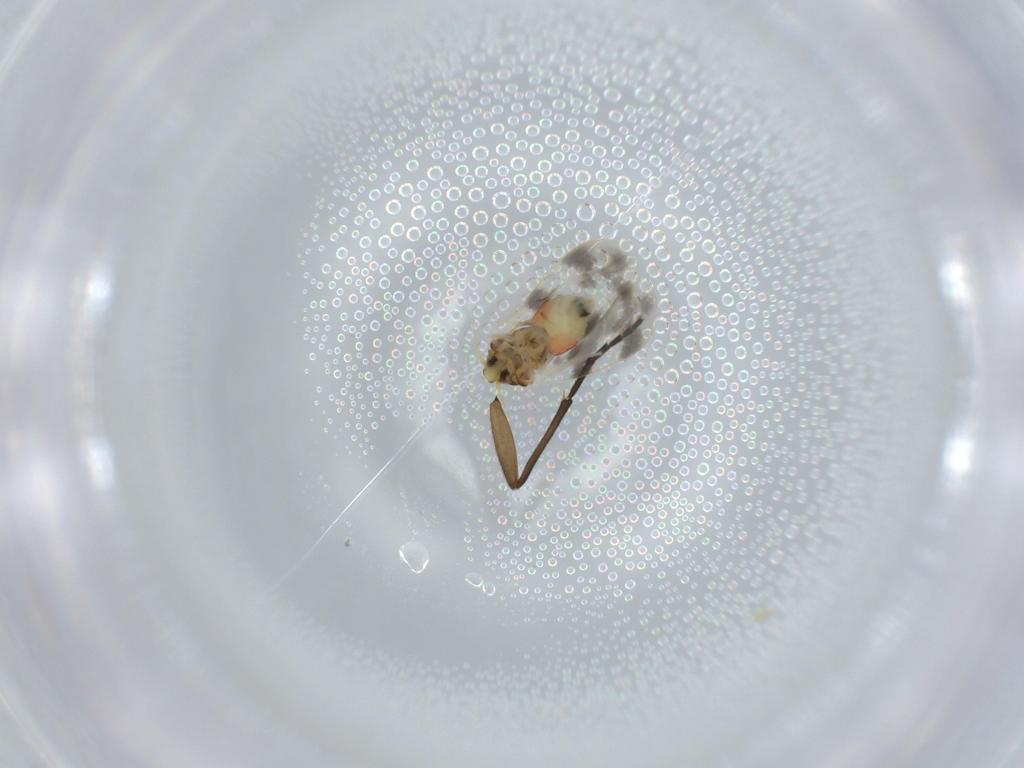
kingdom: Animalia
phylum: Arthropoda
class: Insecta
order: Hemiptera
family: Aleyrodidae
